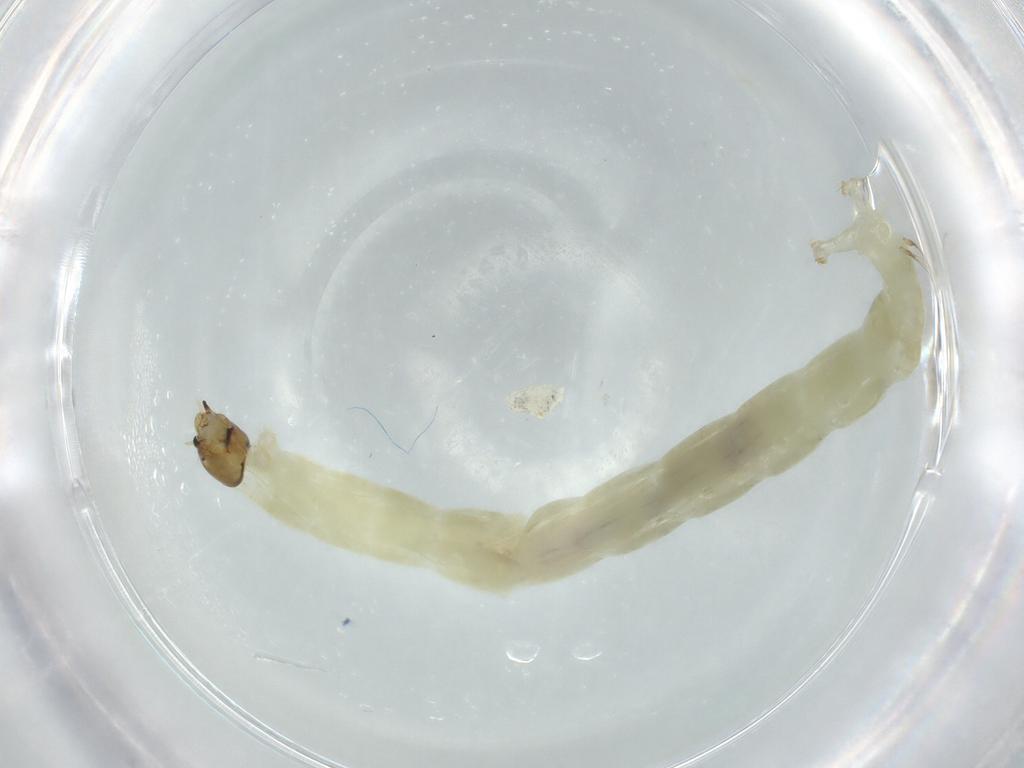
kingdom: Animalia
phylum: Arthropoda
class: Insecta
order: Diptera
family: Chironomidae
